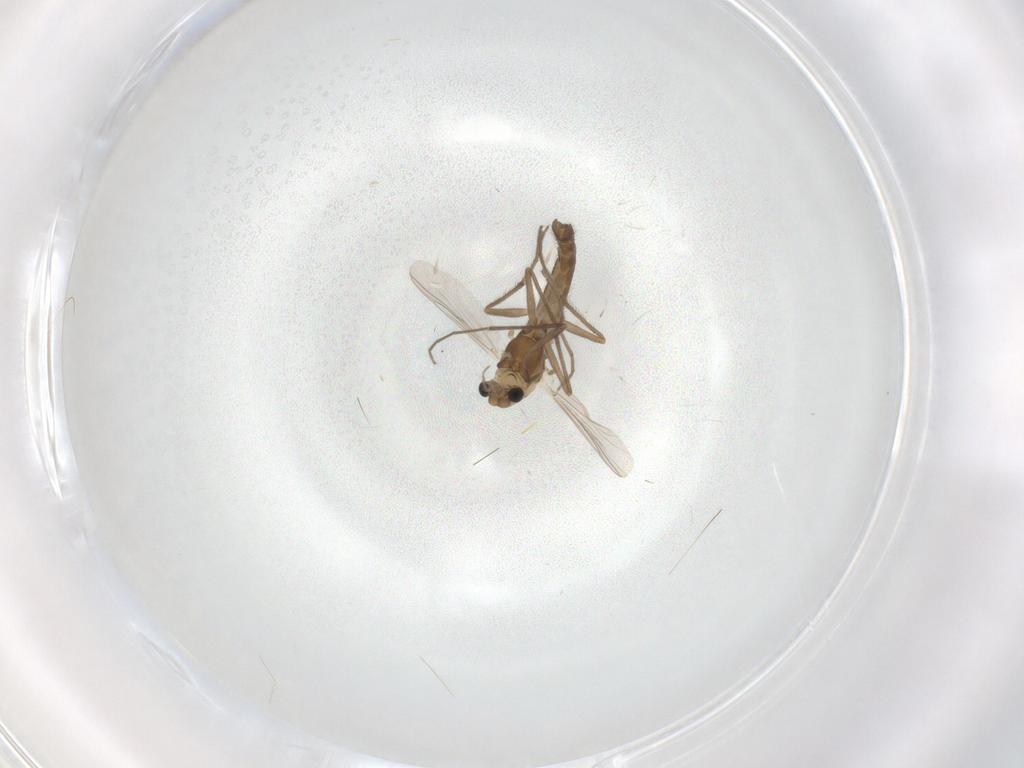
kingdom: Animalia
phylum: Arthropoda
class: Insecta
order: Diptera
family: Chironomidae
